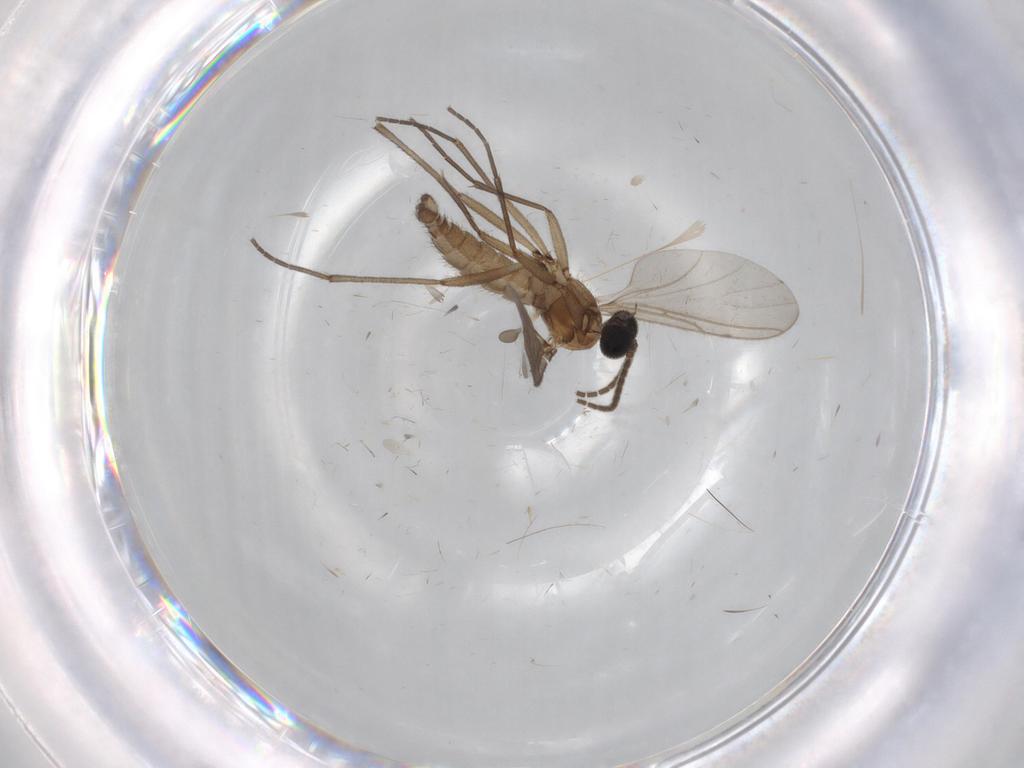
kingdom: Animalia
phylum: Arthropoda
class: Insecta
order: Diptera
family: Sciaridae
